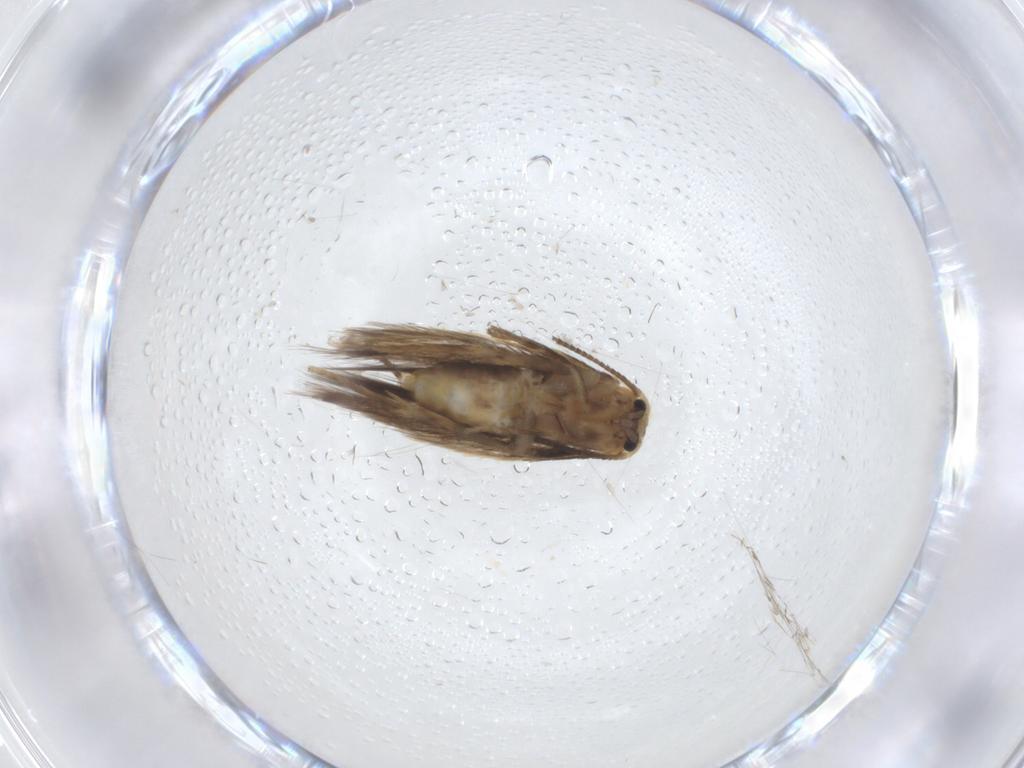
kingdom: Animalia
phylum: Arthropoda
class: Insecta
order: Lepidoptera
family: Nepticulidae
